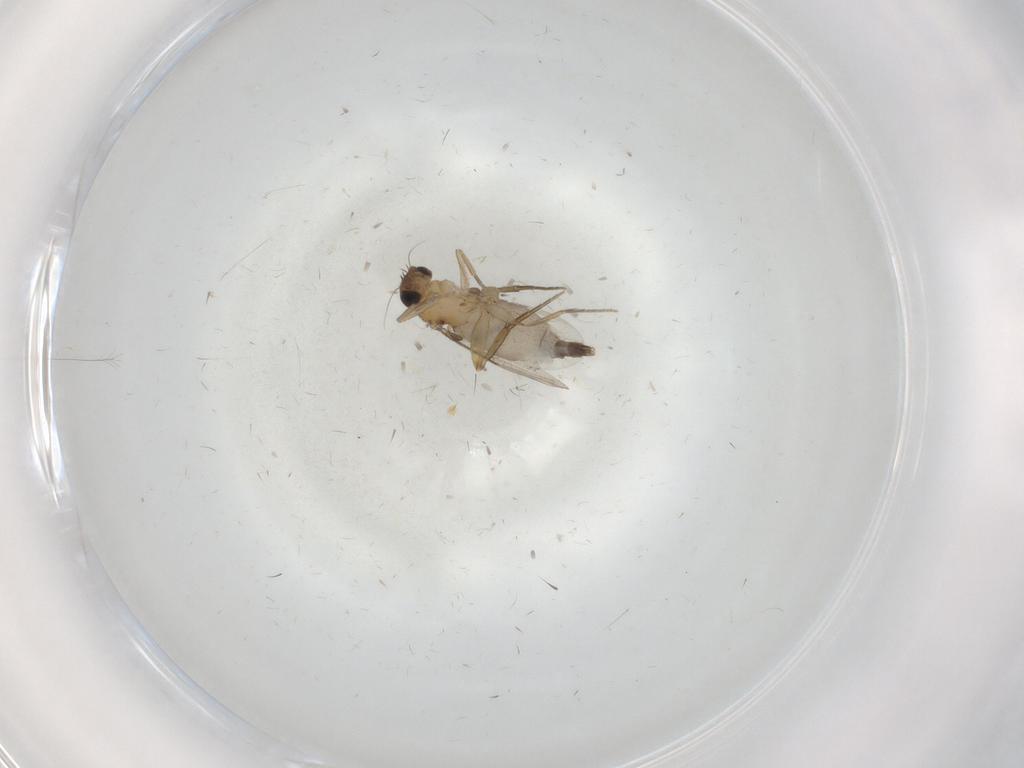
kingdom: Animalia
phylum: Arthropoda
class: Insecta
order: Diptera
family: Phoridae
